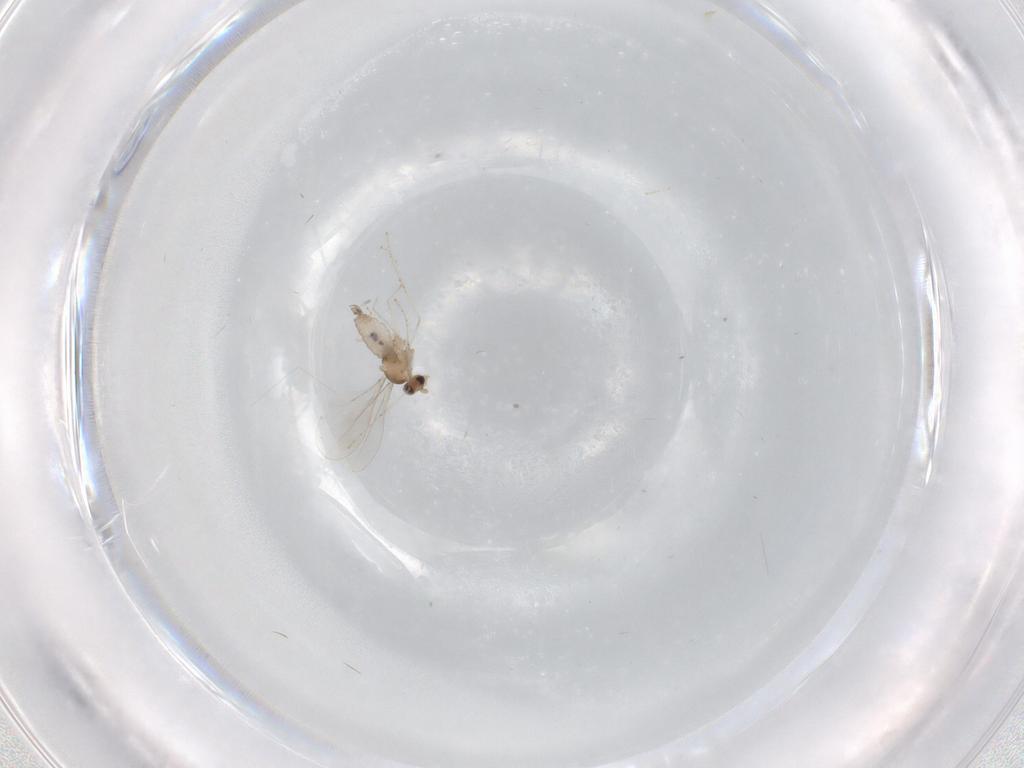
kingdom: Animalia
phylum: Arthropoda
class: Insecta
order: Diptera
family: Cecidomyiidae
